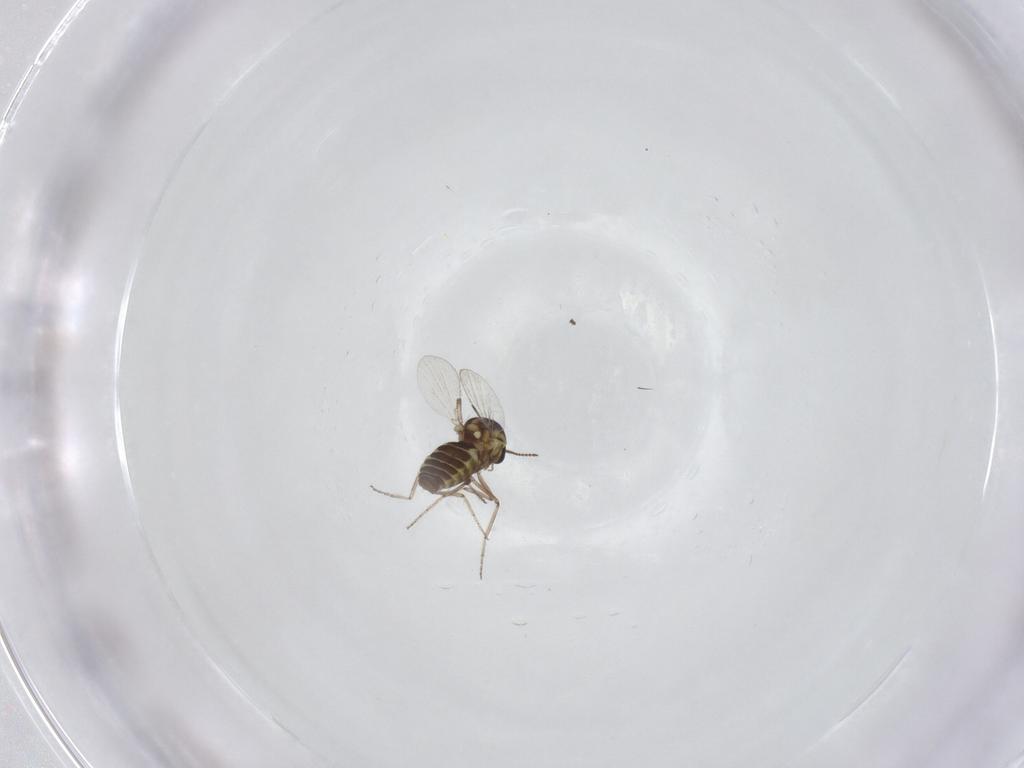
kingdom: Animalia
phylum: Arthropoda
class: Insecta
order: Diptera
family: Ceratopogonidae
